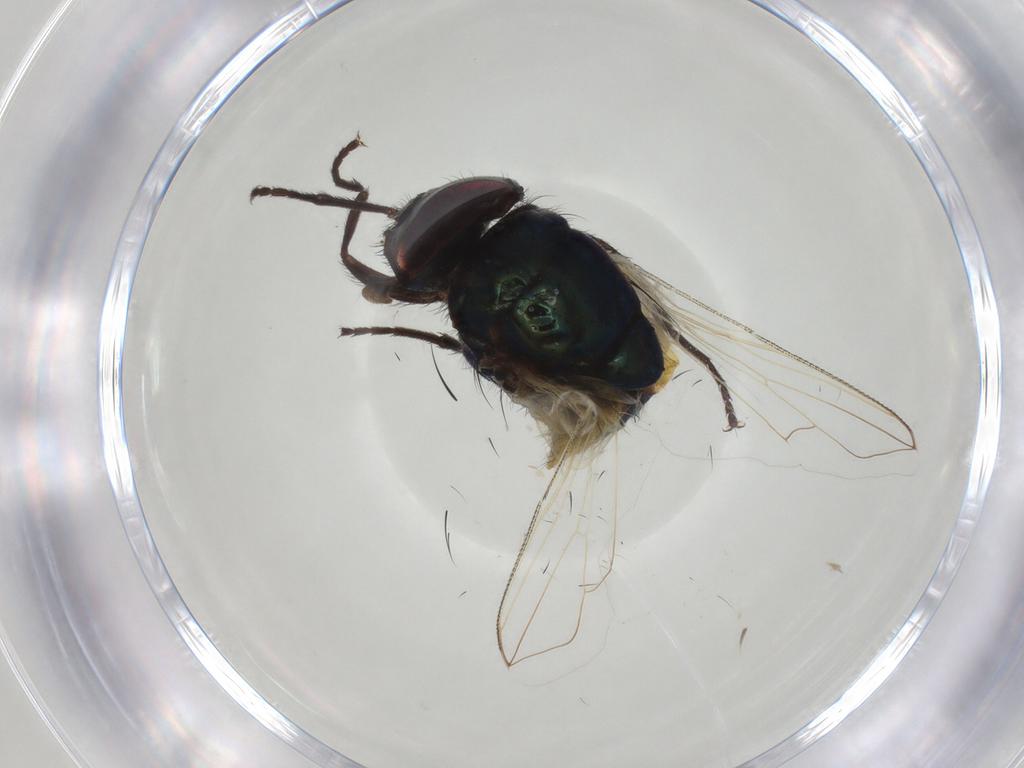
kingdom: Animalia
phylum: Arthropoda
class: Insecta
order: Diptera
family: Muscidae
